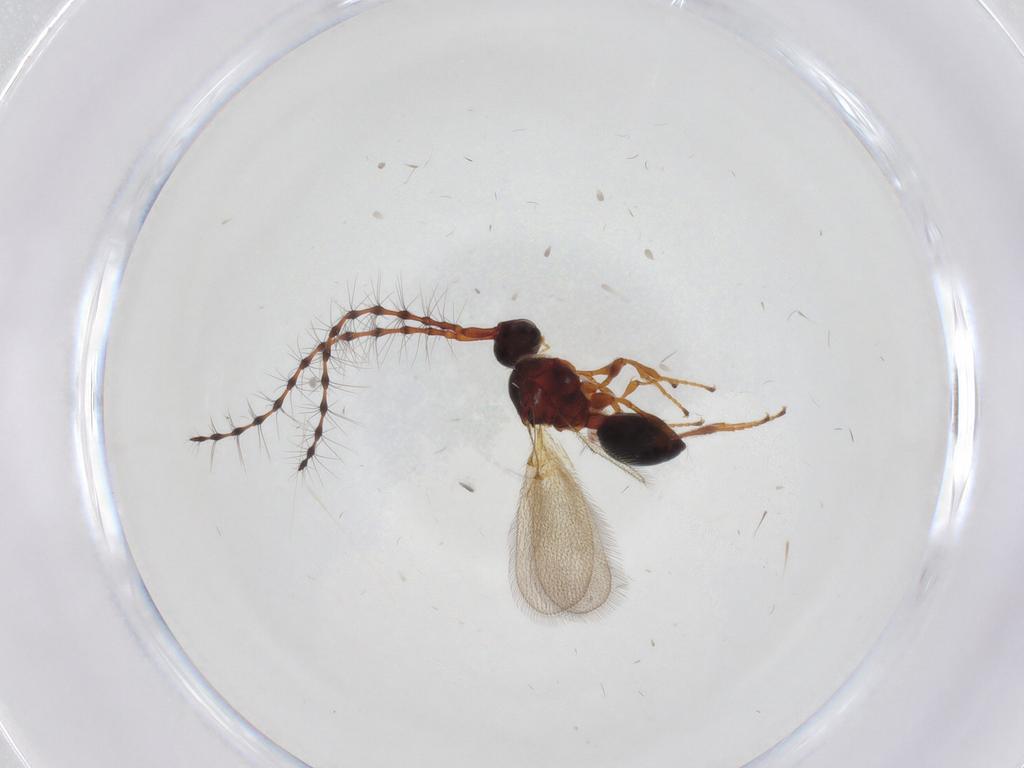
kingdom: Animalia
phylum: Arthropoda
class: Insecta
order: Hymenoptera
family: Diapriidae
